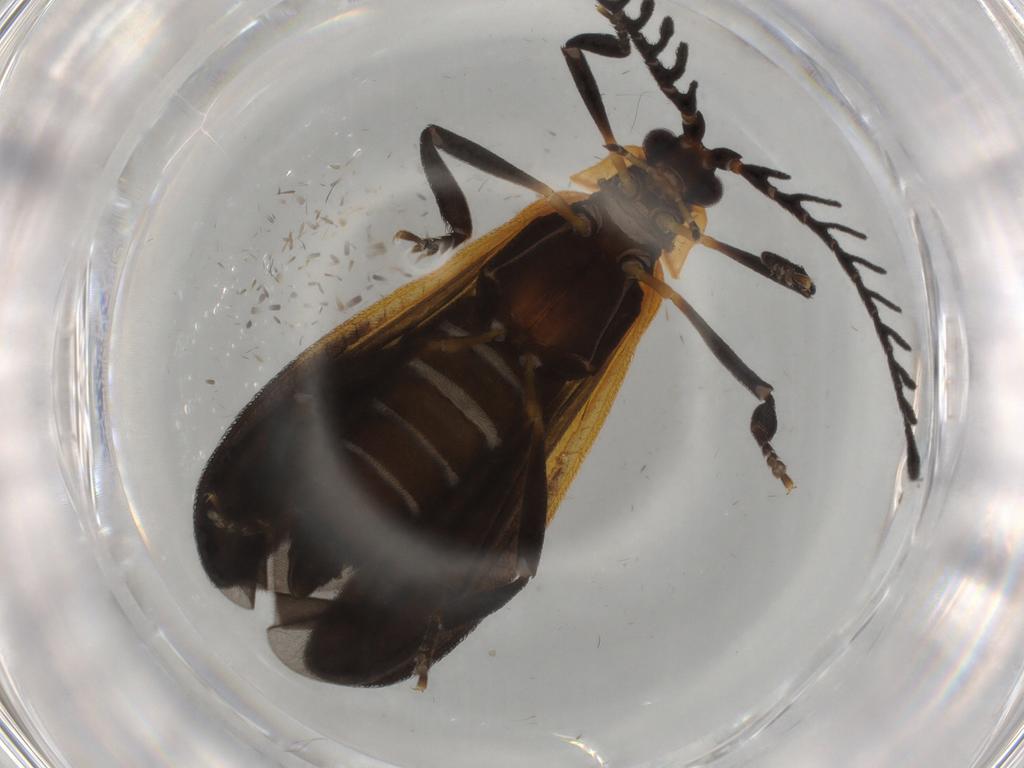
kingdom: Animalia
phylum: Arthropoda
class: Insecta
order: Coleoptera
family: Lycidae
